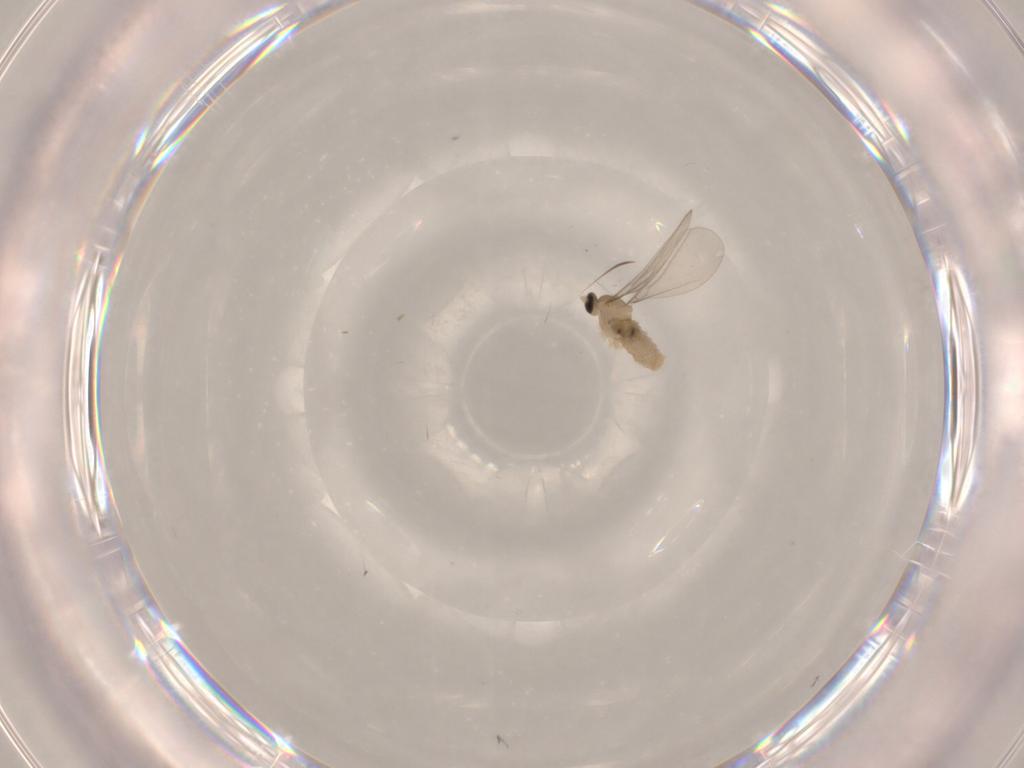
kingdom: Animalia
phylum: Arthropoda
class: Insecta
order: Diptera
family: Chironomidae
